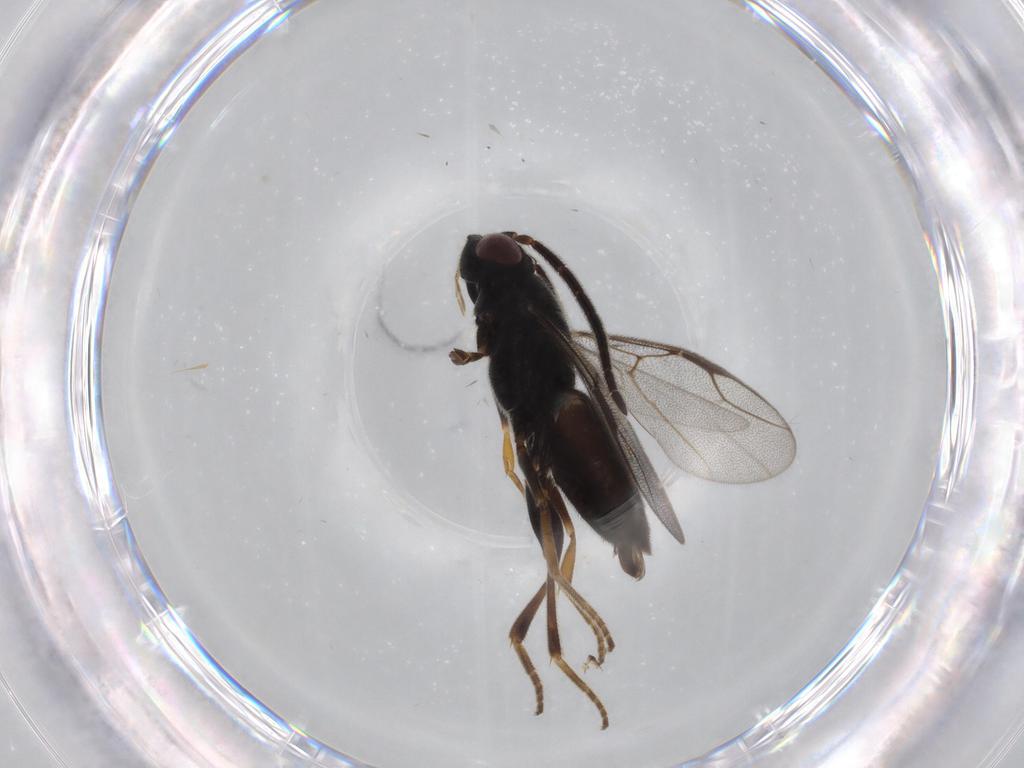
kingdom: Animalia
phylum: Arthropoda
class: Insecta
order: Hymenoptera
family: Dryinidae
